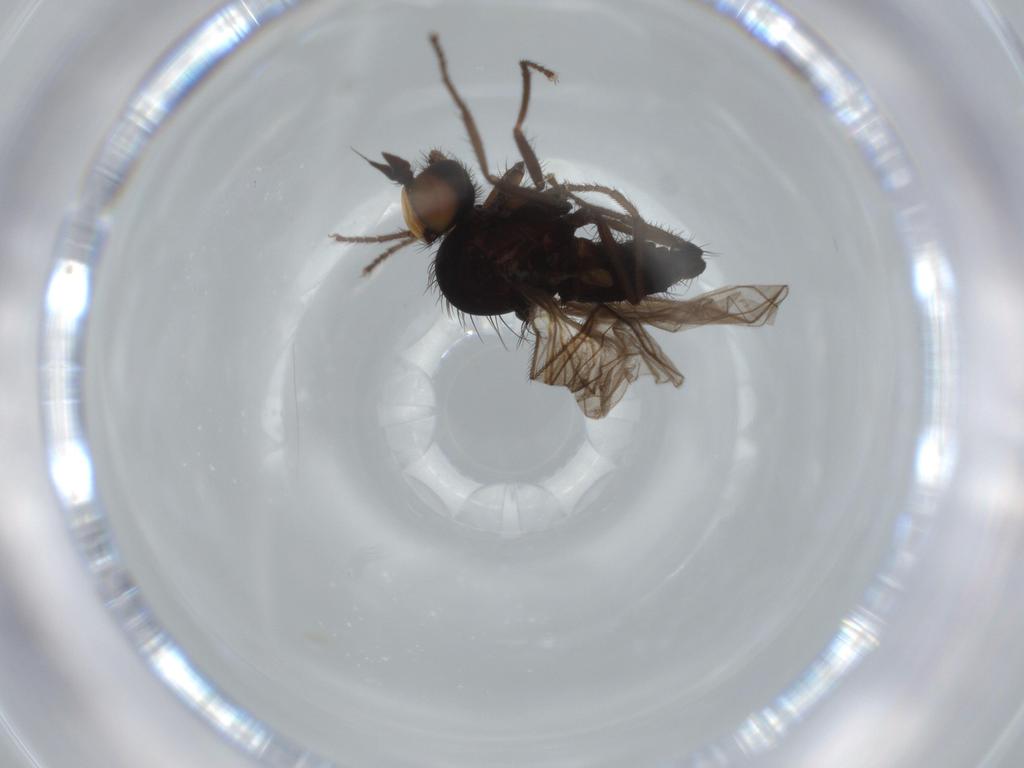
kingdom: Animalia
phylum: Arthropoda
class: Insecta
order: Diptera
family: Dolichopodidae
